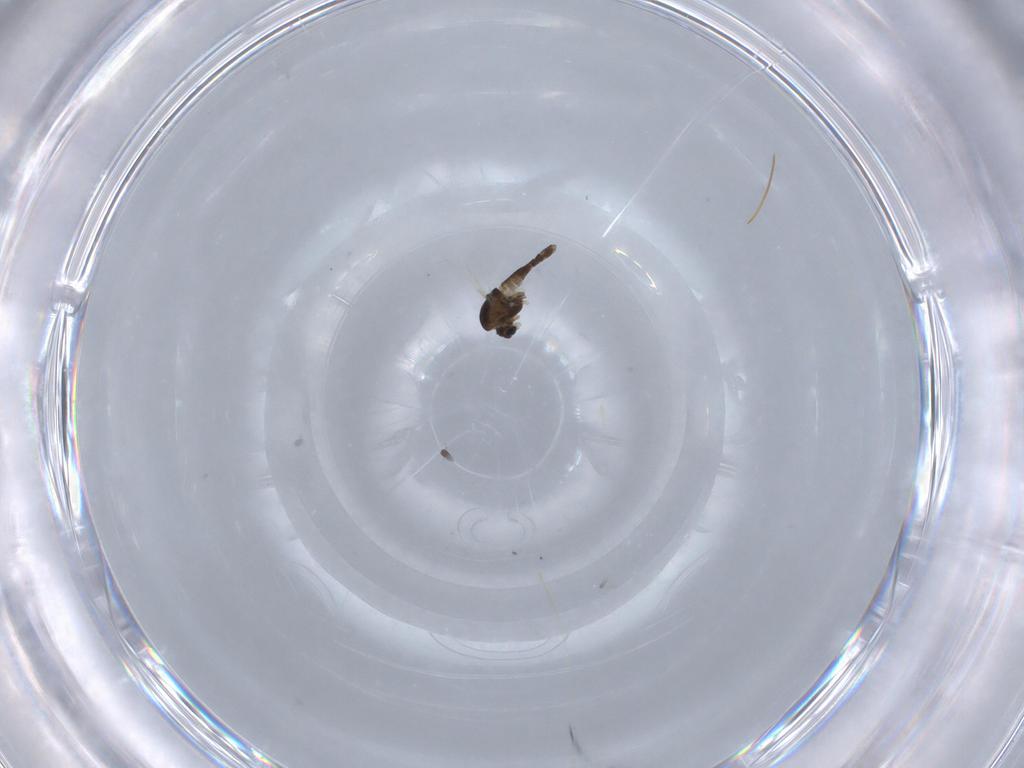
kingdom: Animalia
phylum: Arthropoda
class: Insecta
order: Diptera
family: Chironomidae
